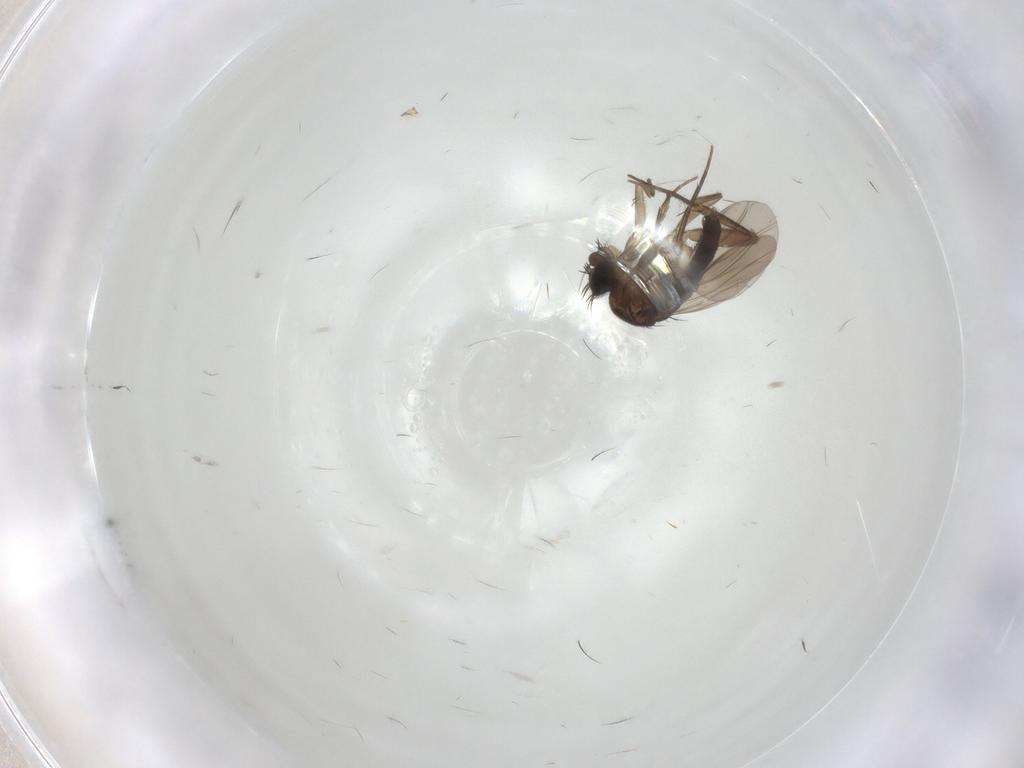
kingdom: Animalia
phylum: Arthropoda
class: Insecta
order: Diptera
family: Phoridae
